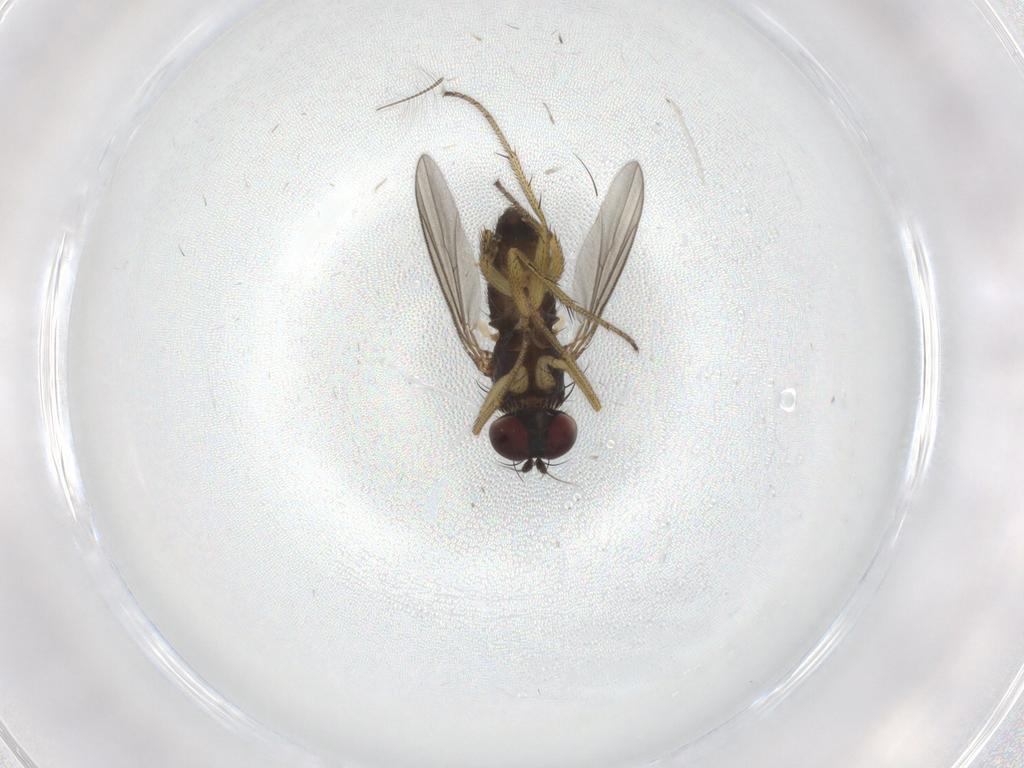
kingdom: Animalia
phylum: Arthropoda
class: Insecta
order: Diptera
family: Dolichopodidae
